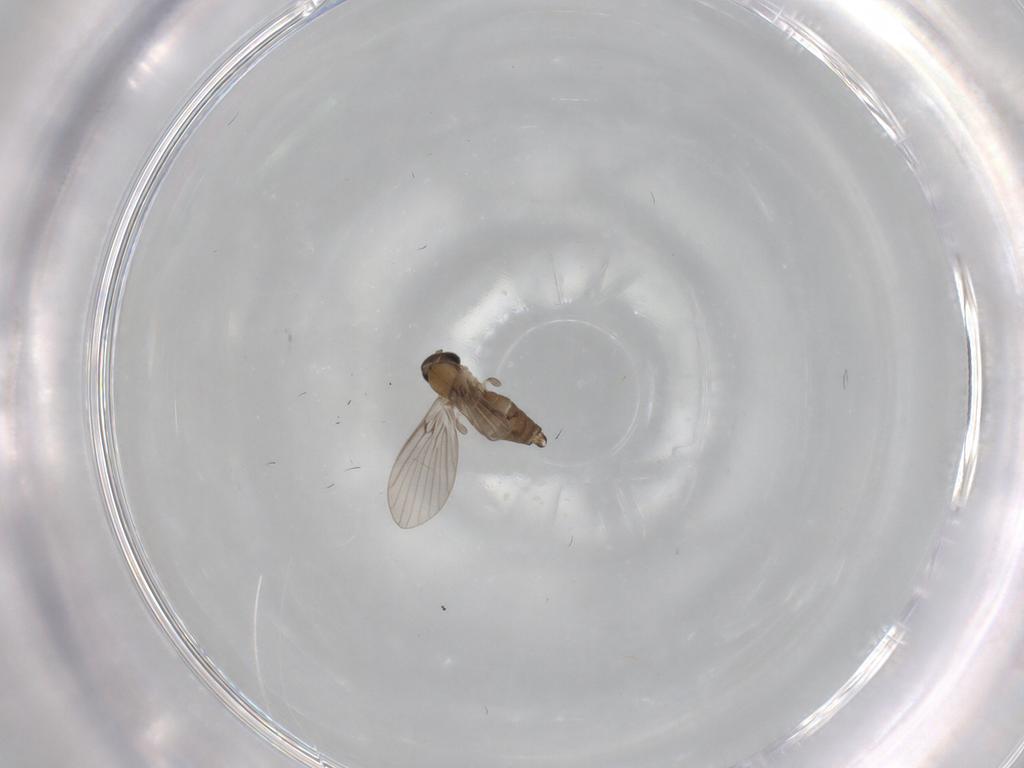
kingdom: Animalia
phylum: Arthropoda
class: Insecta
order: Diptera
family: Psychodidae
